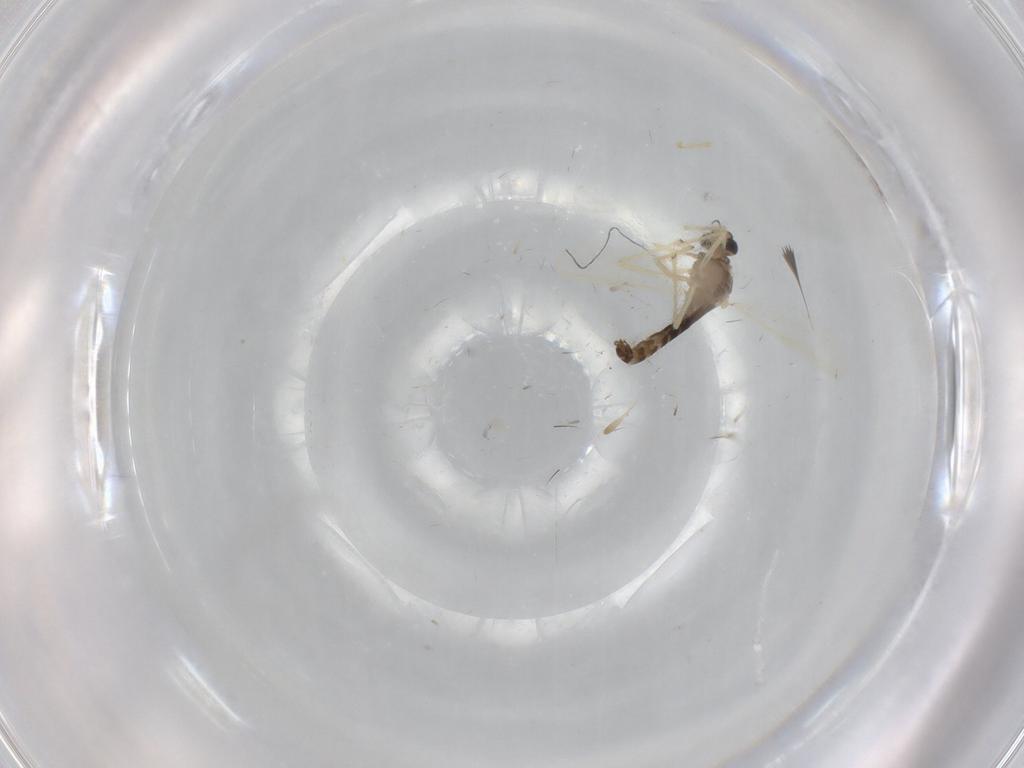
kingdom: Animalia
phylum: Arthropoda
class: Insecta
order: Diptera
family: Chironomidae
